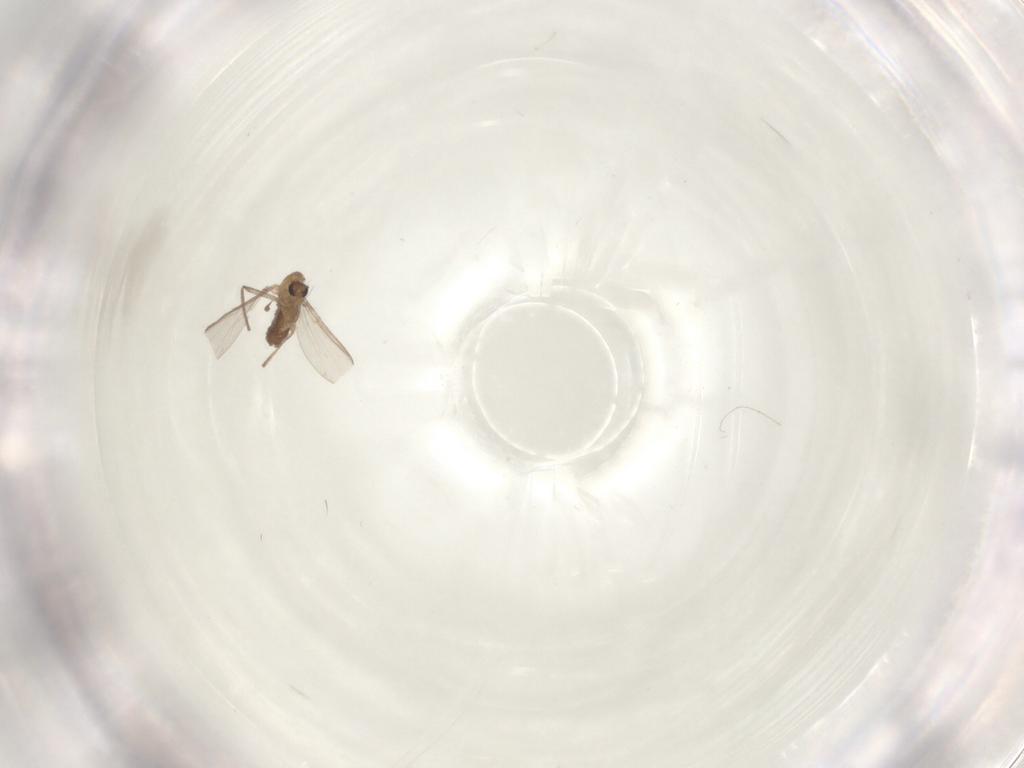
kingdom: Animalia
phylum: Arthropoda
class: Insecta
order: Diptera
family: Chironomidae
